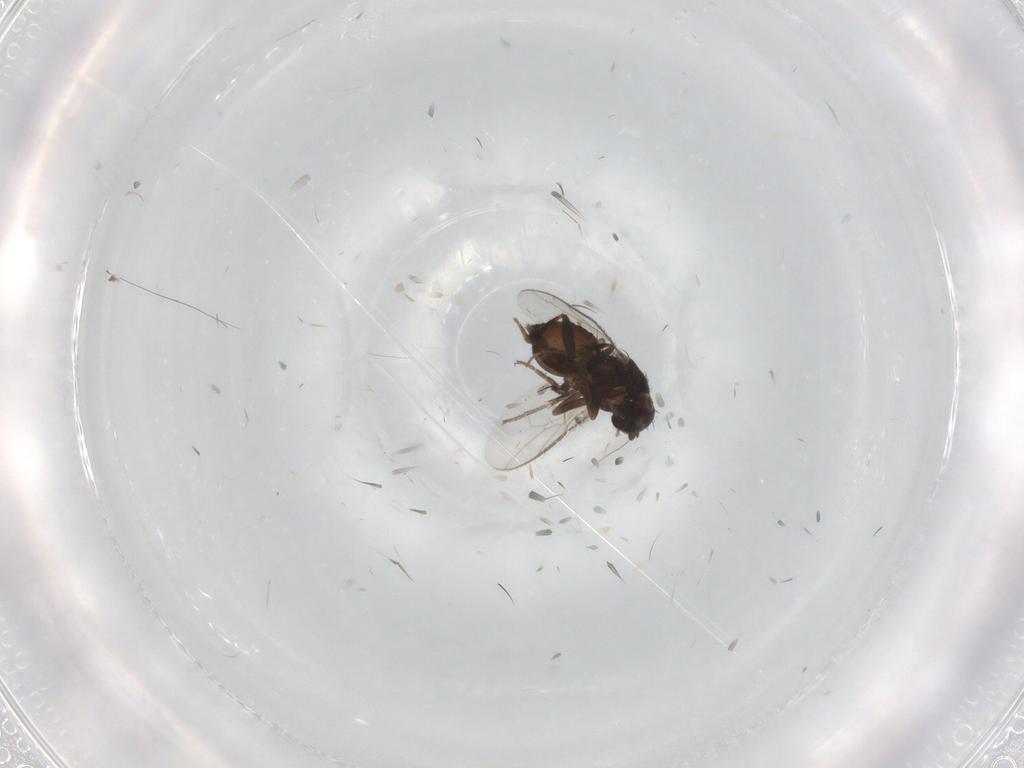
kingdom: Animalia
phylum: Arthropoda
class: Insecta
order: Diptera
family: Sphaeroceridae
